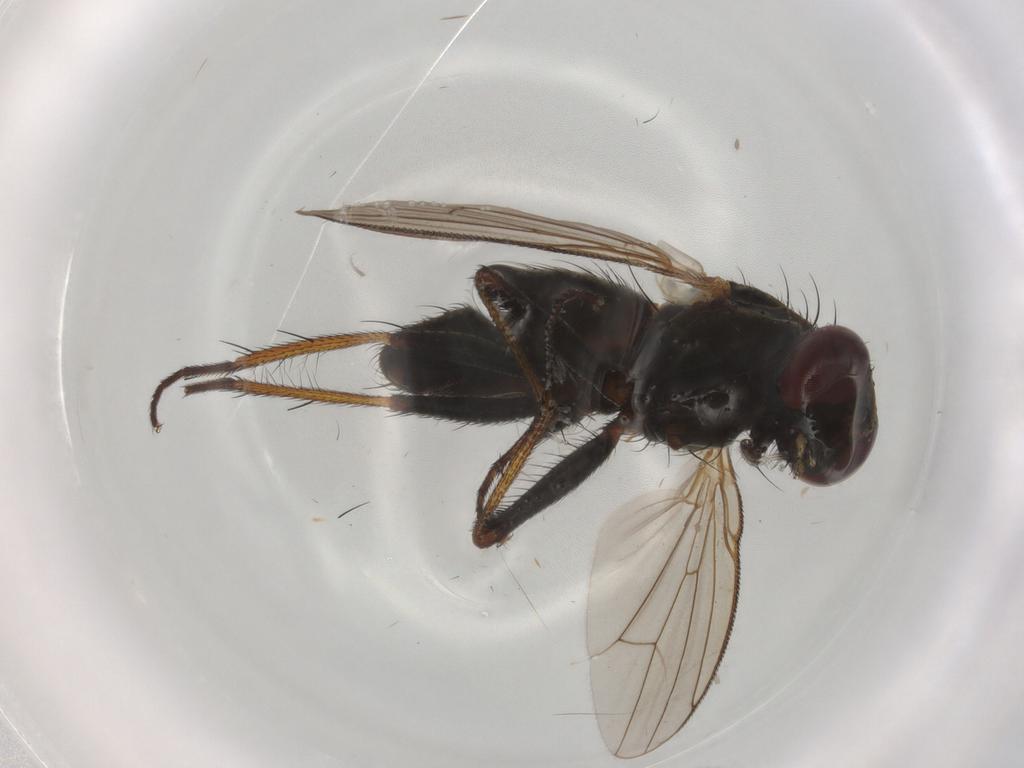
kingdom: Animalia
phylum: Arthropoda
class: Insecta
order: Diptera
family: Muscidae
